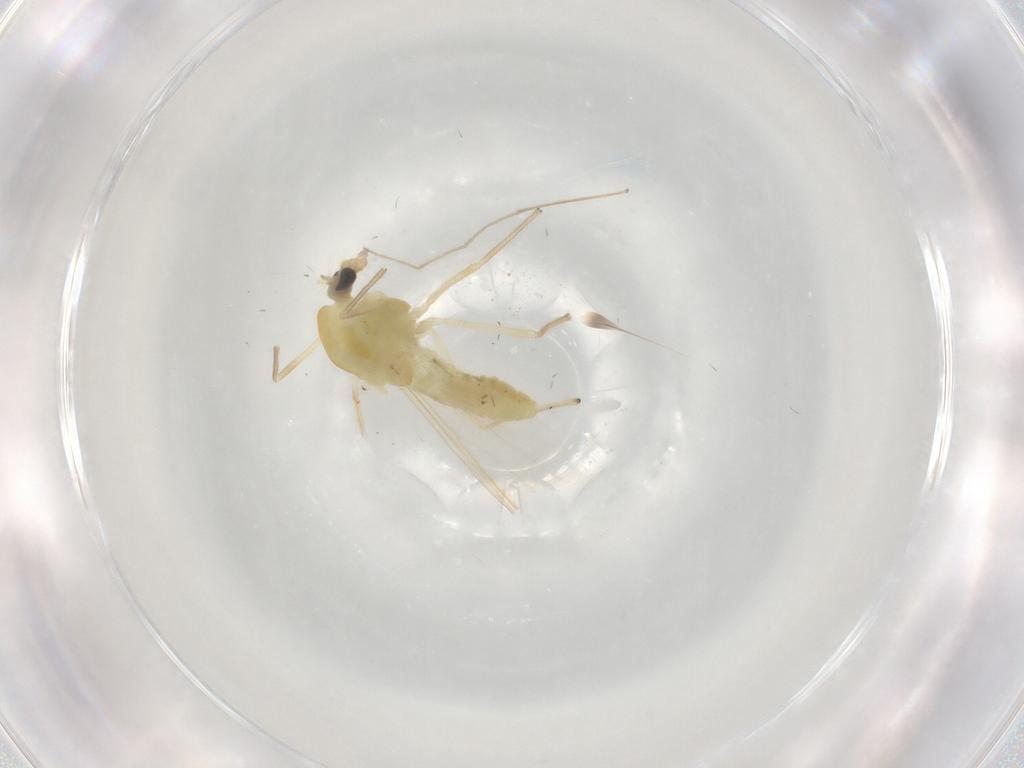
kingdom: Animalia
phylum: Arthropoda
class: Insecta
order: Diptera
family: Chironomidae
